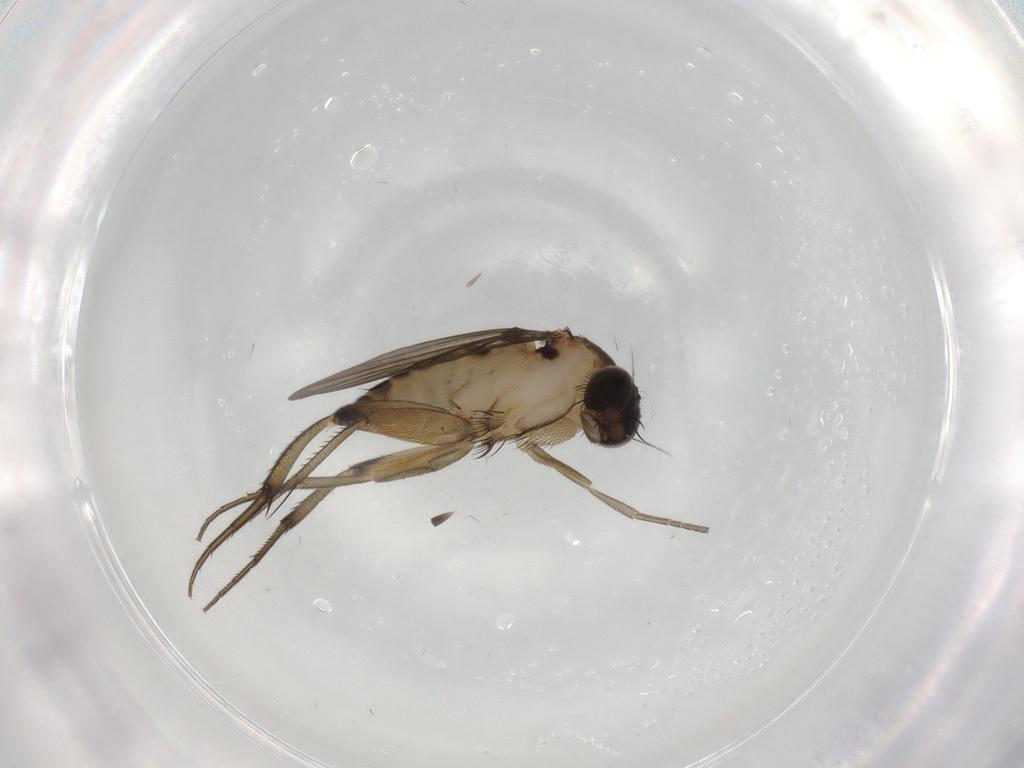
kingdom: Animalia
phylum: Arthropoda
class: Insecta
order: Diptera
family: Phoridae
